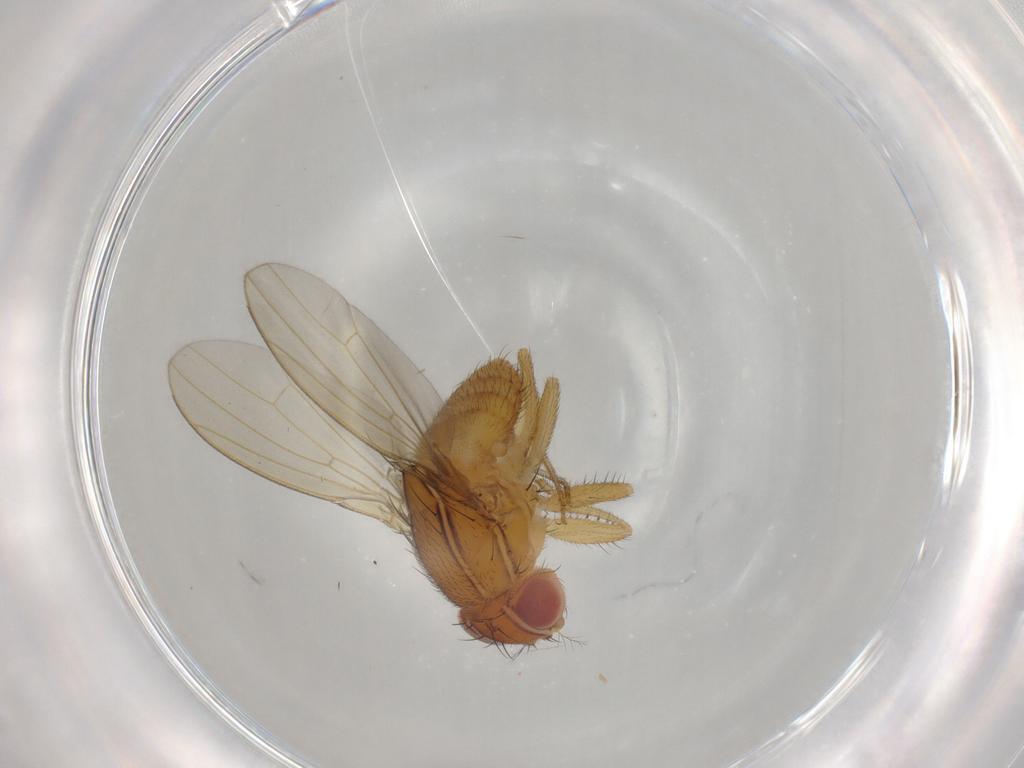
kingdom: Animalia
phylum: Arthropoda
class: Insecta
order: Diptera
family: Drosophilidae
